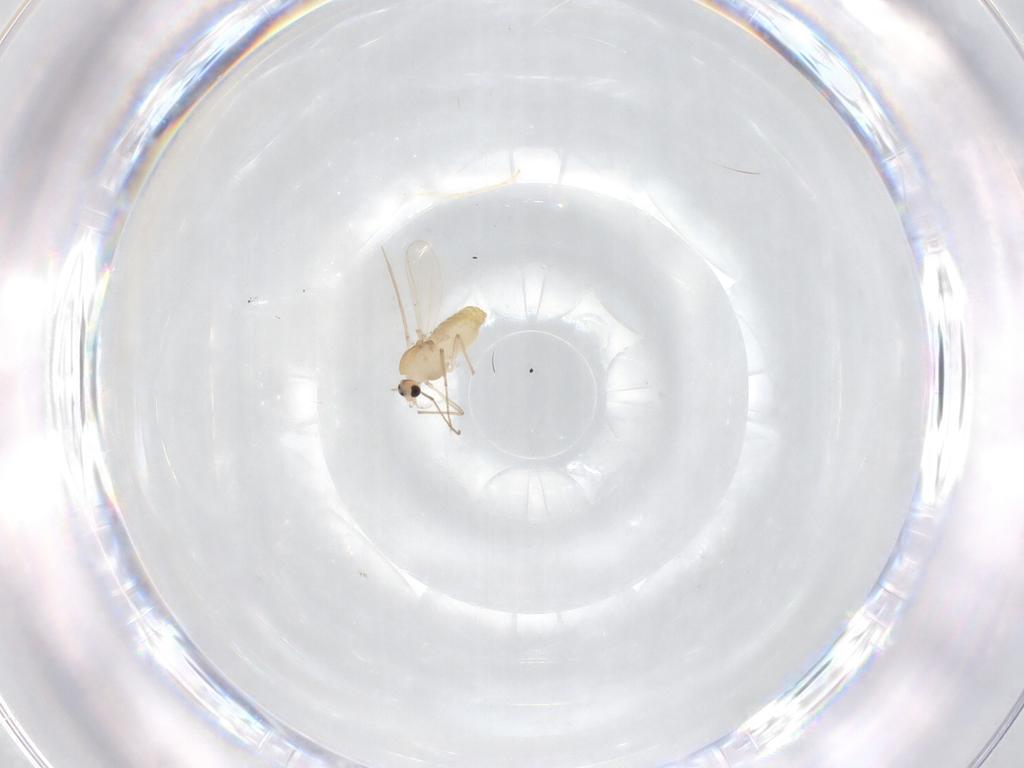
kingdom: Animalia
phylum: Arthropoda
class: Insecta
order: Diptera
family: Chironomidae
